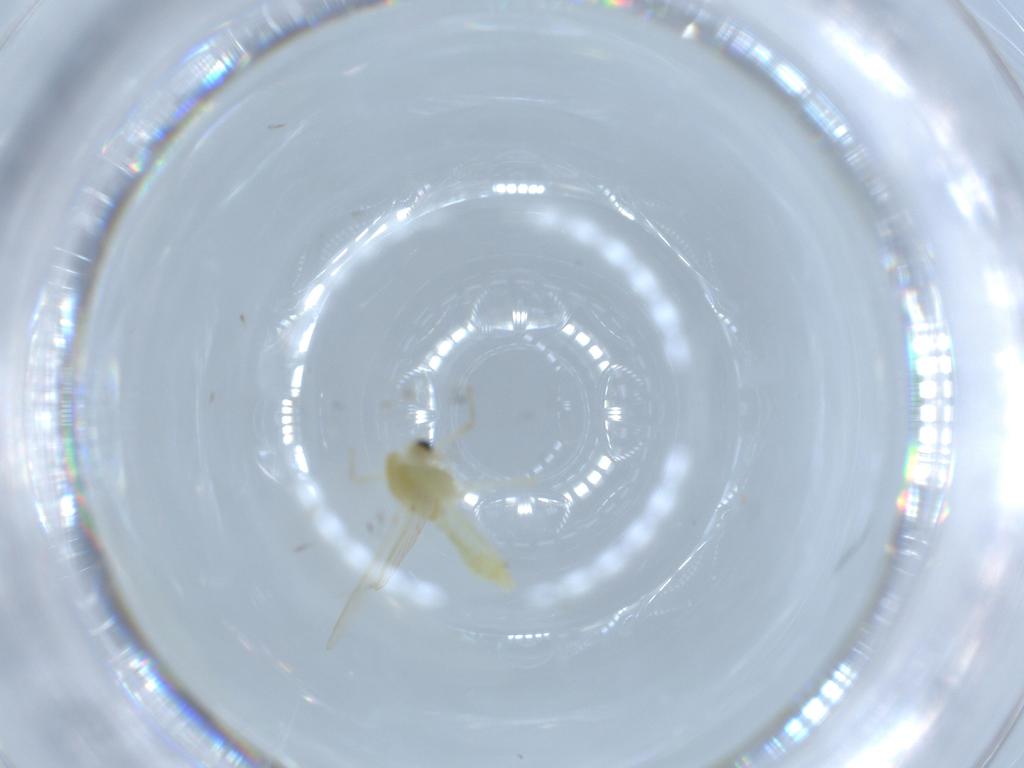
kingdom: Animalia
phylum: Arthropoda
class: Insecta
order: Diptera
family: Chironomidae
